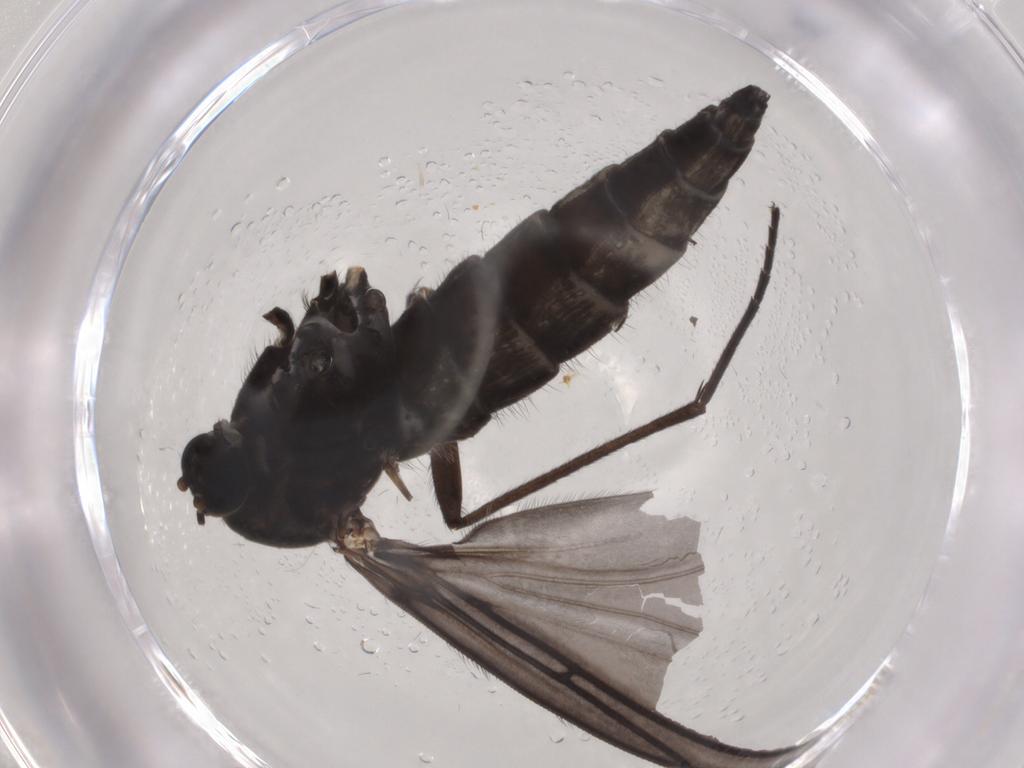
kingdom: Animalia
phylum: Arthropoda
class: Insecta
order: Diptera
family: Sciaridae
